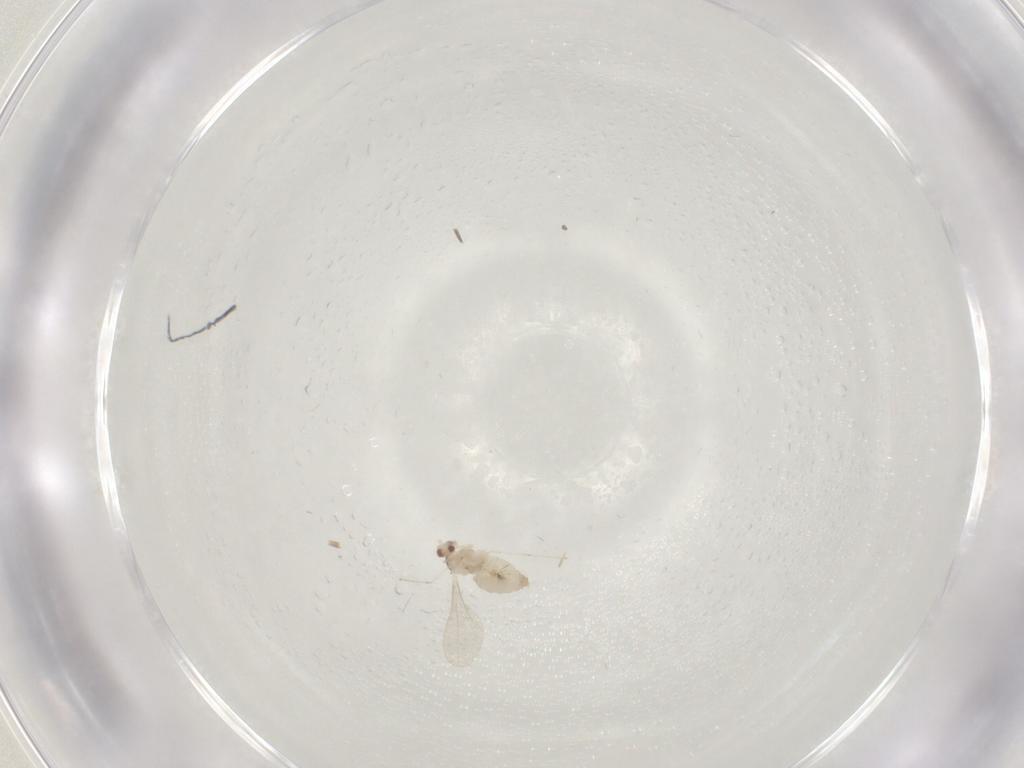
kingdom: Animalia
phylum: Arthropoda
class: Insecta
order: Diptera
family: Cecidomyiidae
